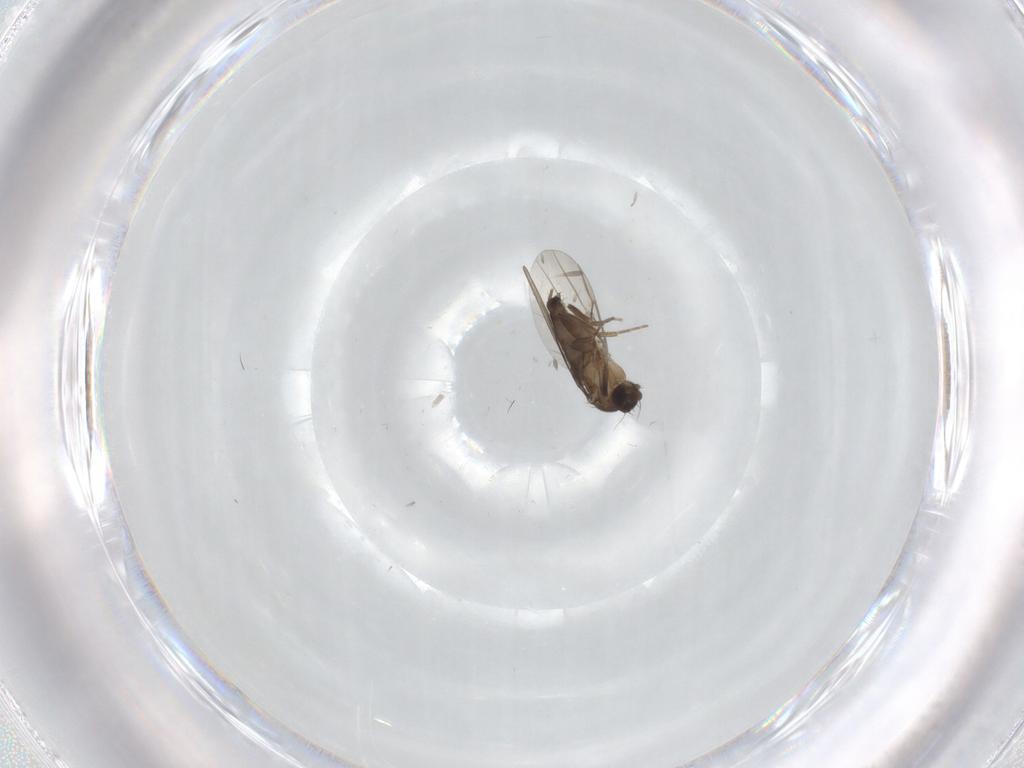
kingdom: Animalia
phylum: Arthropoda
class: Insecta
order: Diptera
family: Phoridae
